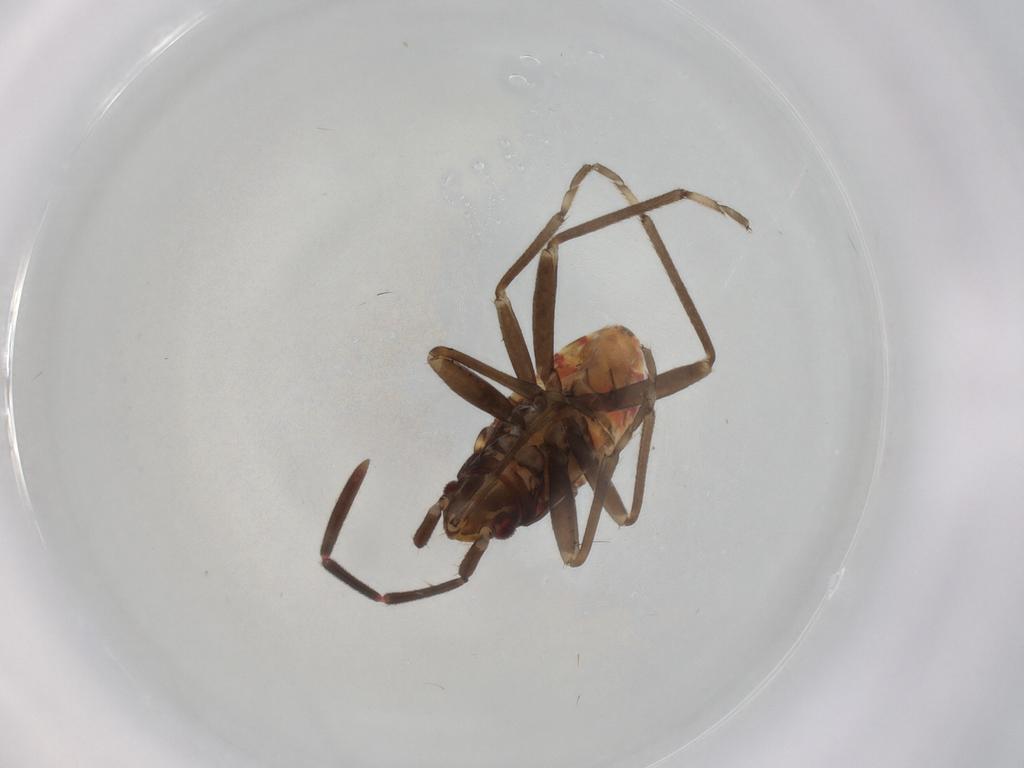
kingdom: Animalia
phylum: Arthropoda
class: Insecta
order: Hemiptera
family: Rhyparochromidae
